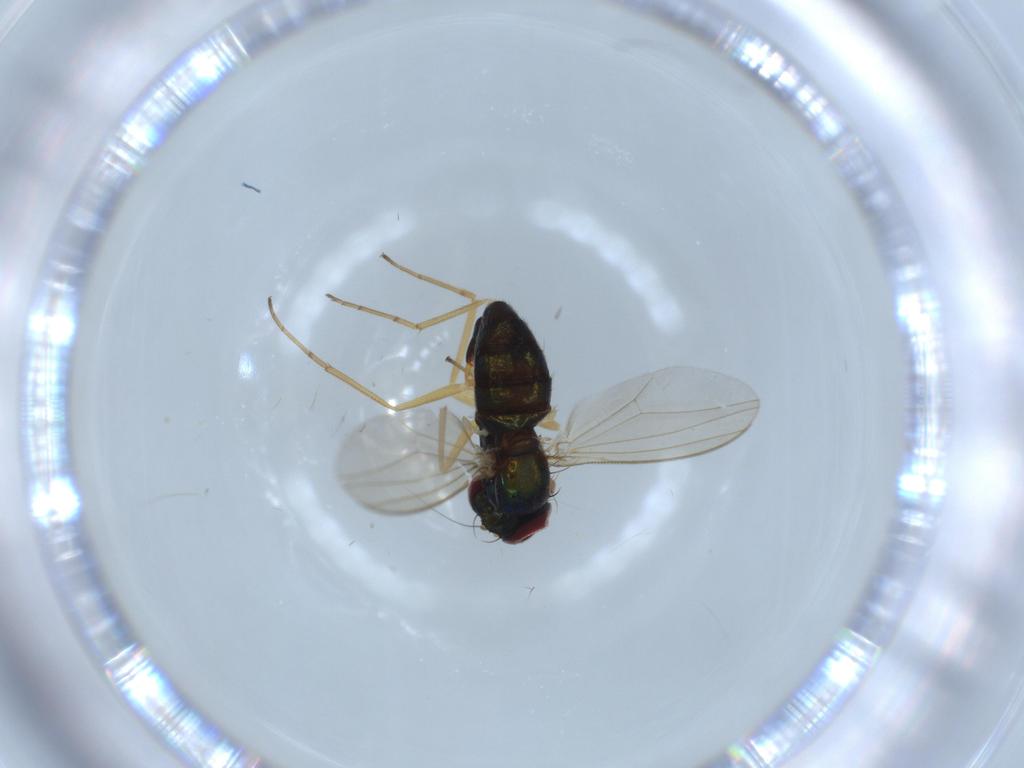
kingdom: Animalia
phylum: Arthropoda
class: Insecta
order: Diptera
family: Dolichopodidae
